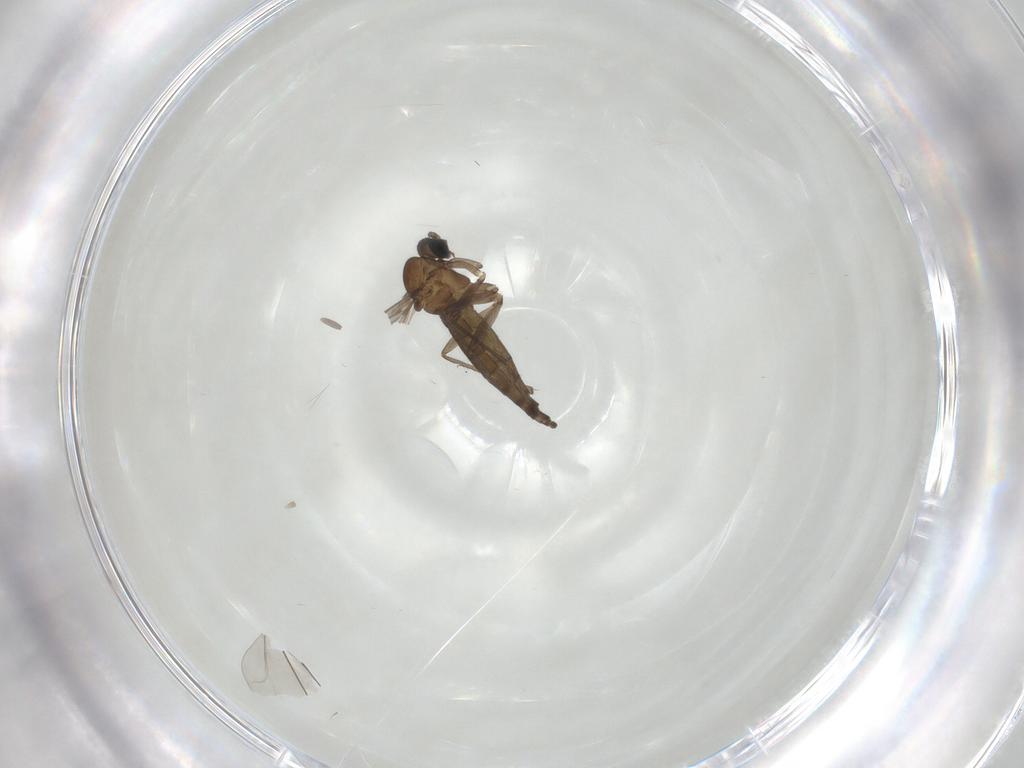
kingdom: Animalia
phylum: Arthropoda
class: Insecta
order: Diptera
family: Sciaridae
